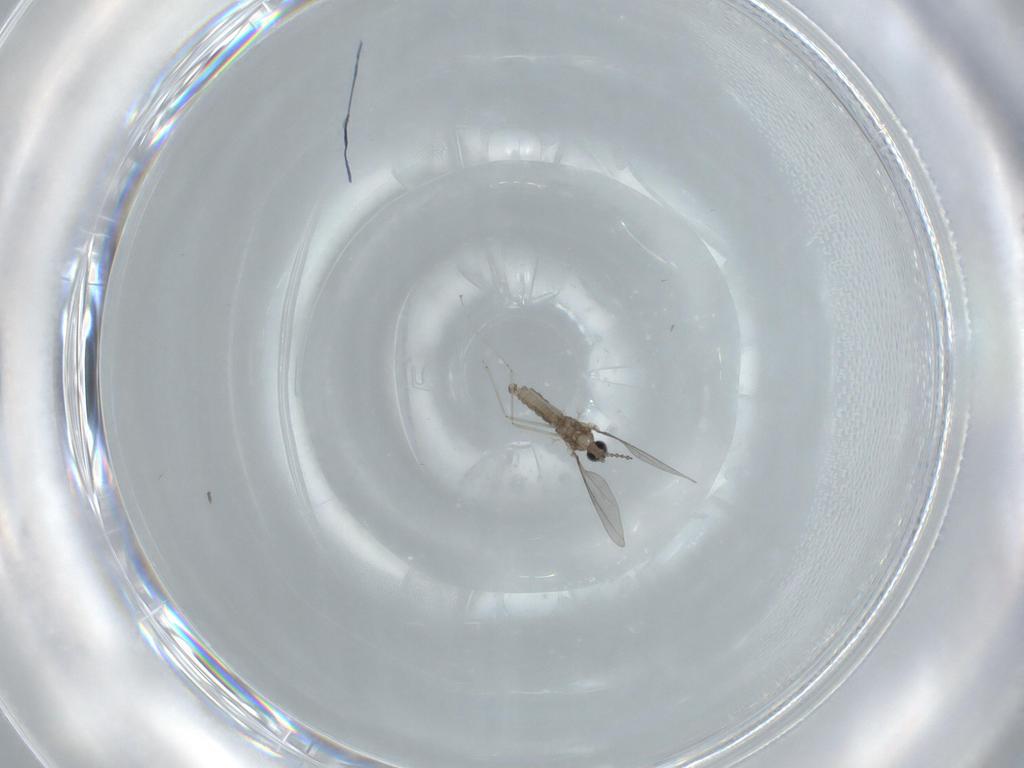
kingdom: Animalia
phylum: Arthropoda
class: Insecta
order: Diptera
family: Cecidomyiidae
